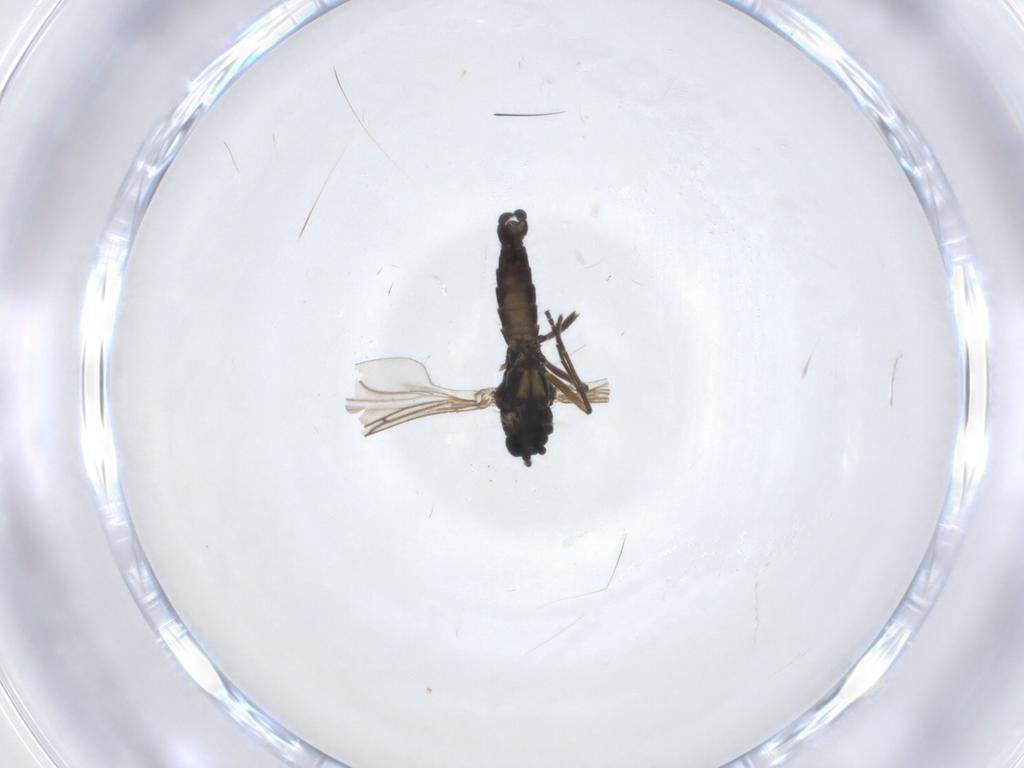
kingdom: Animalia
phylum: Arthropoda
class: Insecta
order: Diptera
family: Sciaridae
